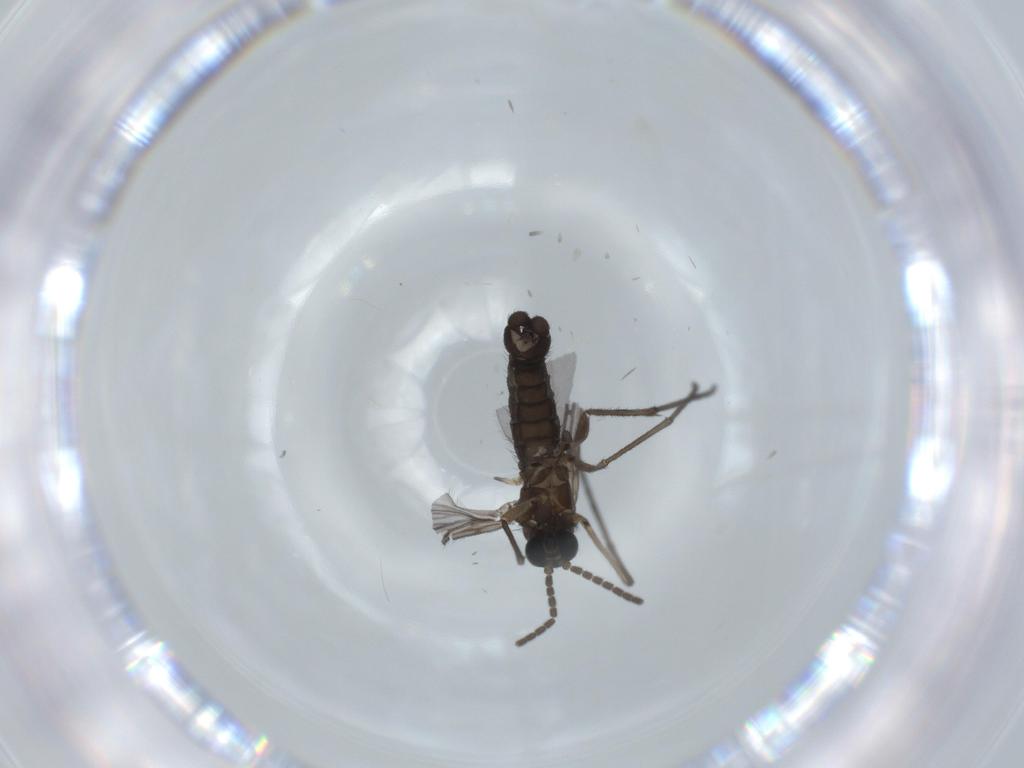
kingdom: Animalia
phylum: Arthropoda
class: Insecta
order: Diptera
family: Sciaridae
